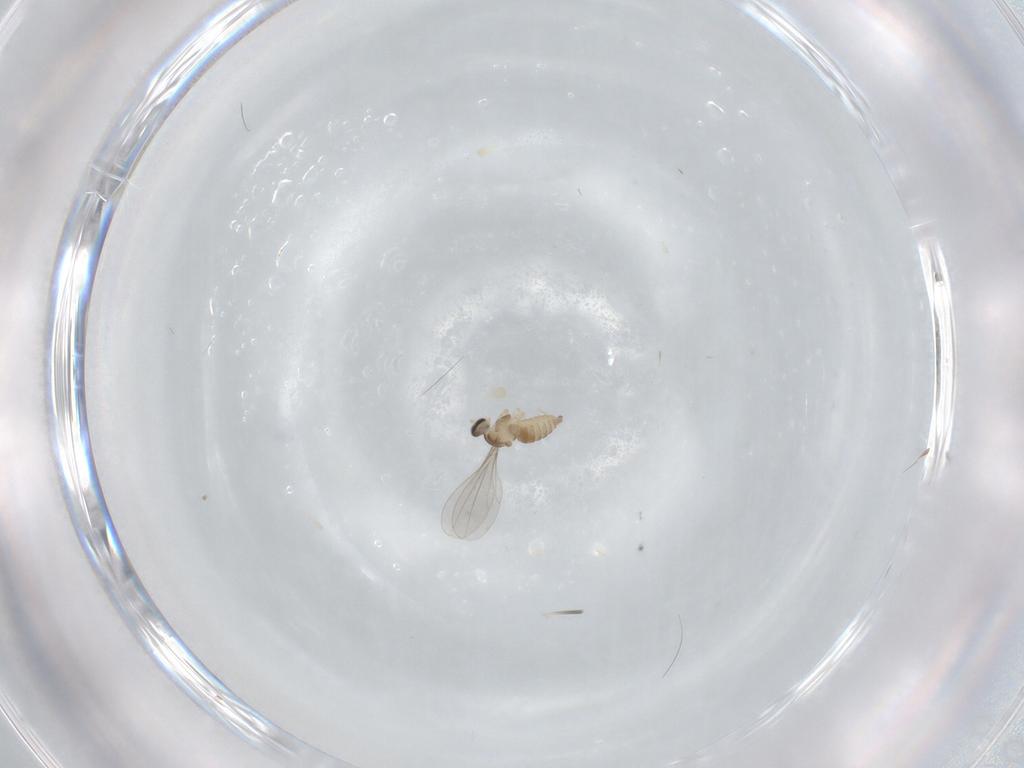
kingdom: Animalia
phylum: Arthropoda
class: Insecta
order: Diptera
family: Cecidomyiidae
